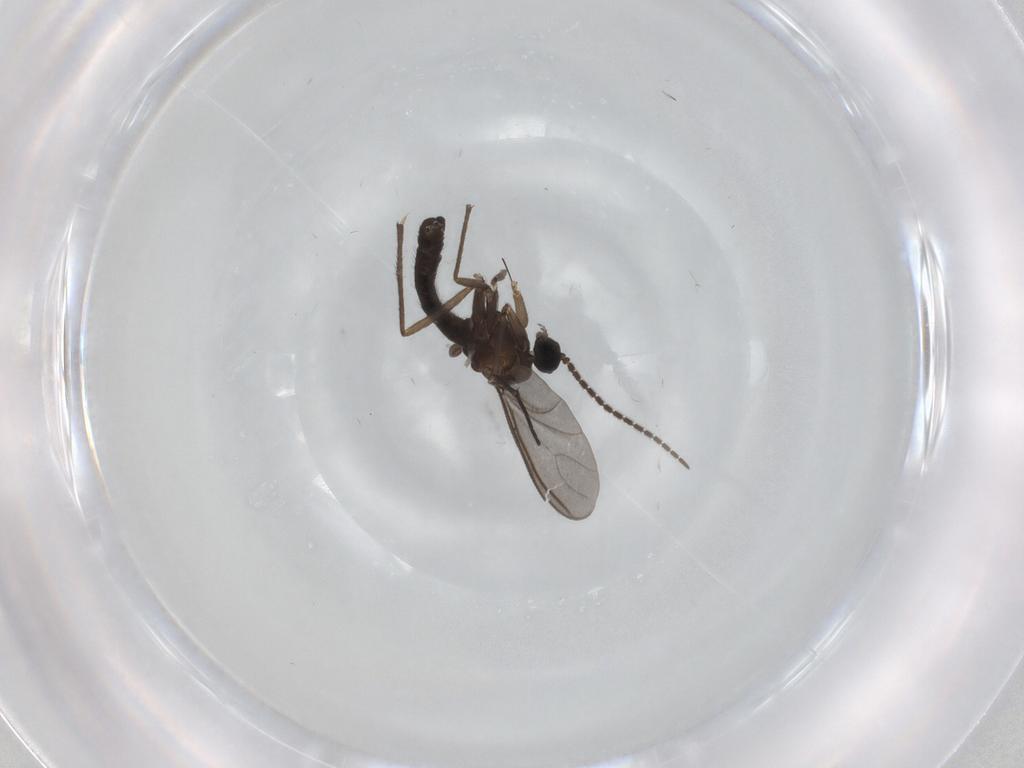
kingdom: Animalia
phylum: Arthropoda
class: Insecta
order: Diptera
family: Sciaridae
